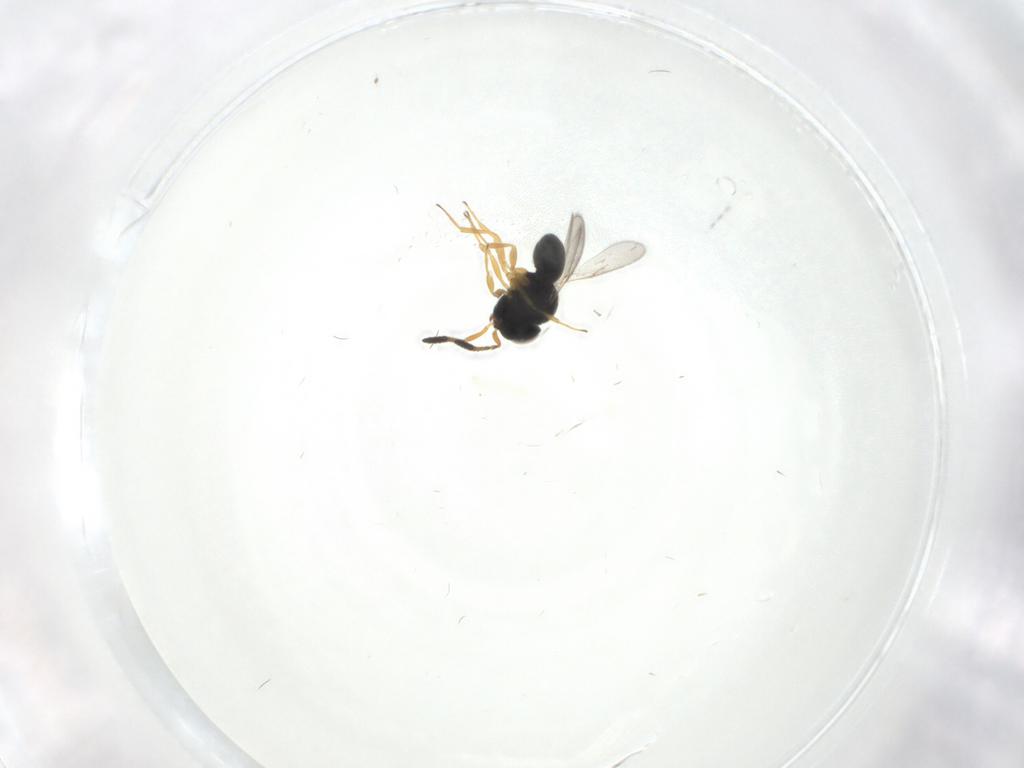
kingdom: Animalia
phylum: Arthropoda
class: Insecta
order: Hymenoptera
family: Scelionidae
